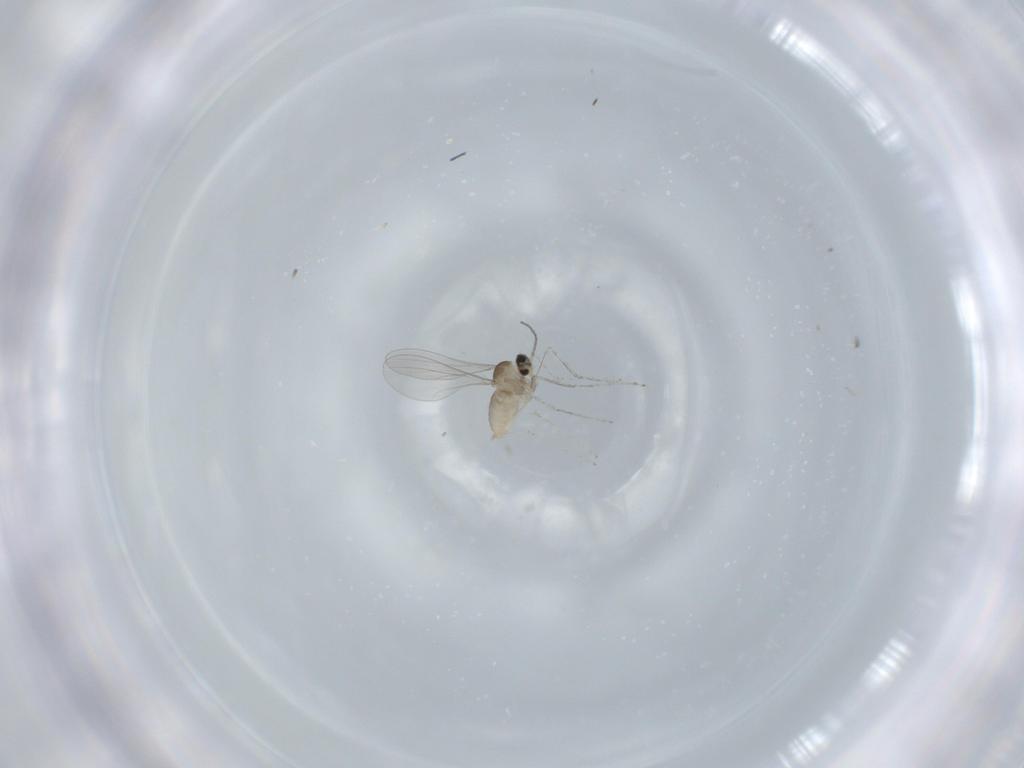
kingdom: Animalia
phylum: Arthropoda
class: Insecta
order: Diptera
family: Cecidomyiidae
